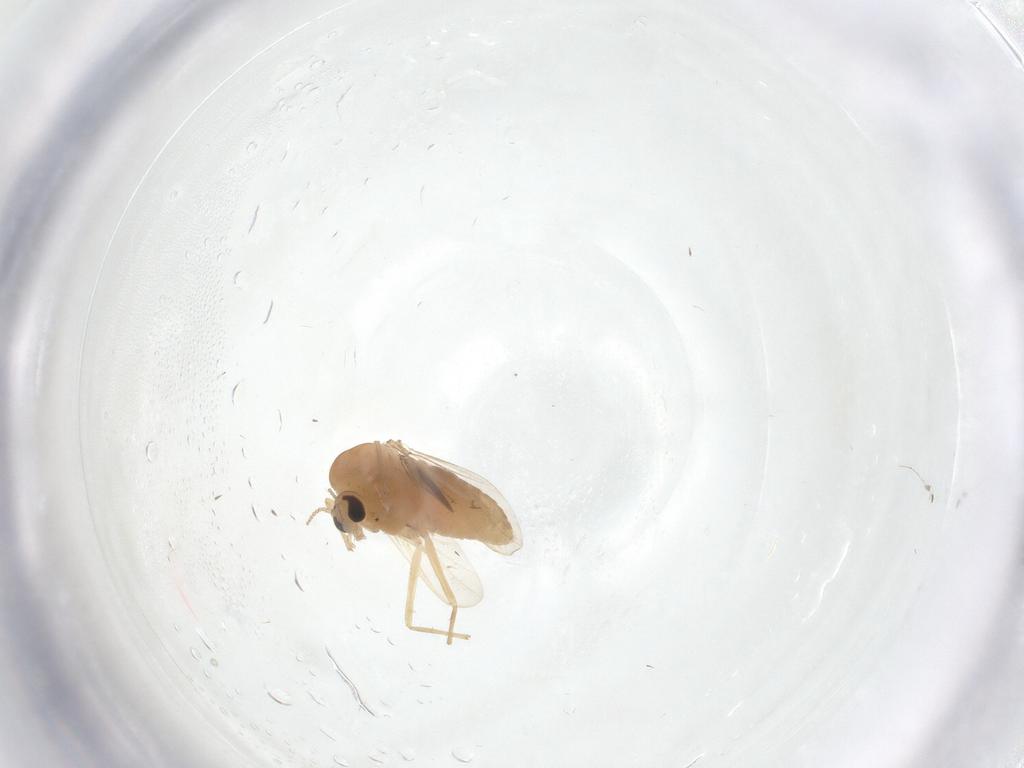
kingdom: Animalia
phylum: Arthropoda
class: Insecta
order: Diptera
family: Chironomidae
